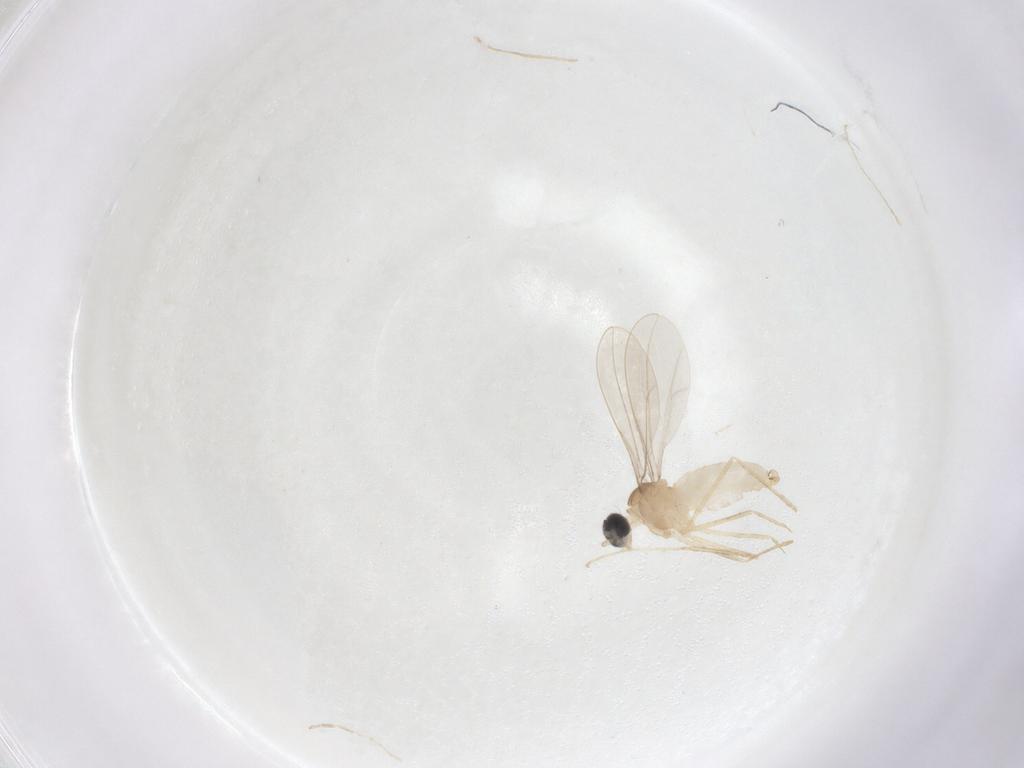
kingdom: Animalia
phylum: Arthropoda
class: Insecta
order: Diptera
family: Cecidomyiidae
